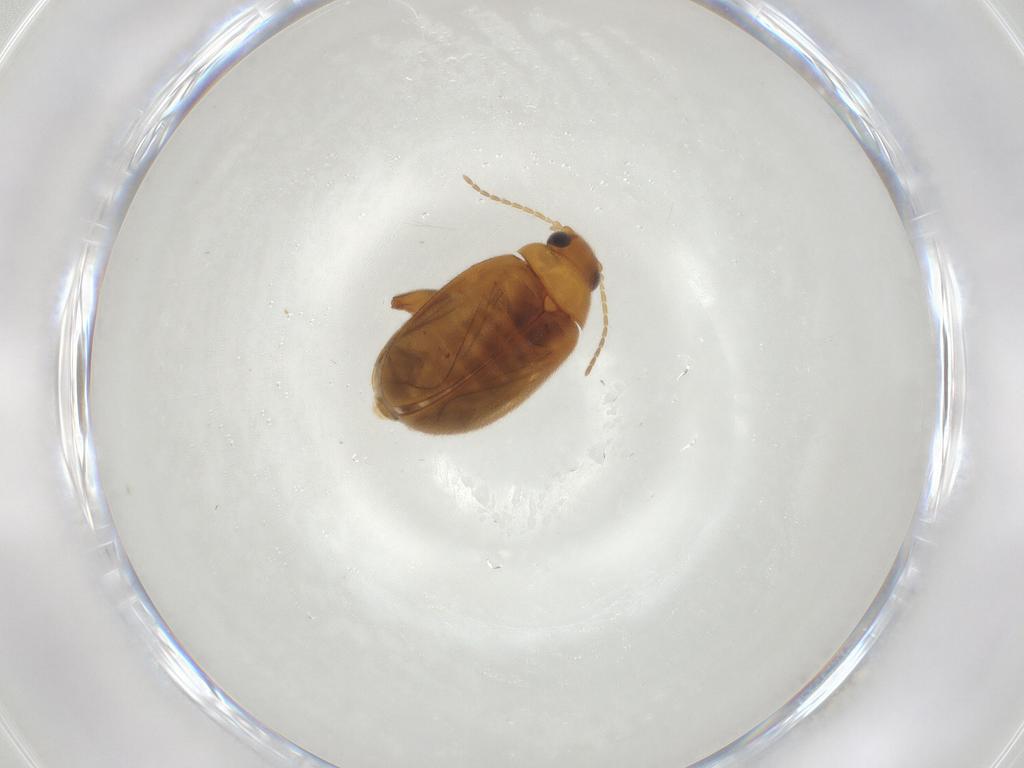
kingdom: Animalia
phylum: Arthropoda
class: Insecta
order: Coleoptera
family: Scirtidae
